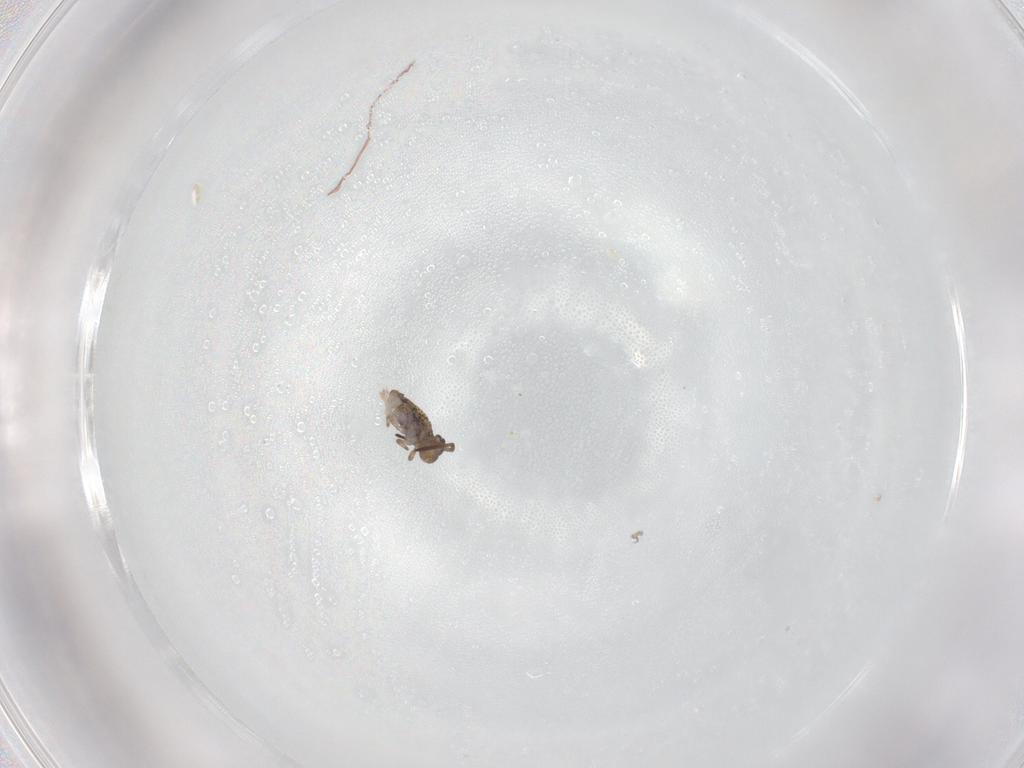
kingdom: Animalia
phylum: Arthropoda
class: Collembola
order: Symphypleona
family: Katiannidae
